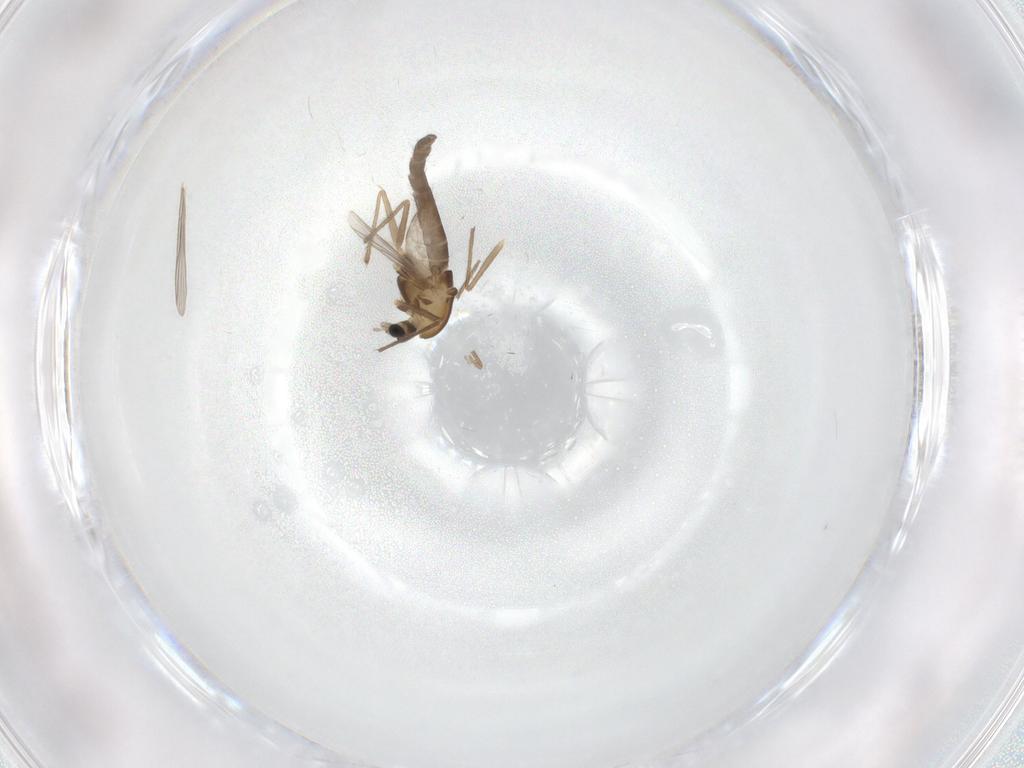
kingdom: Animalia
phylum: Arthropoda
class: Insecta
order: Diptera
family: Chironomidae
